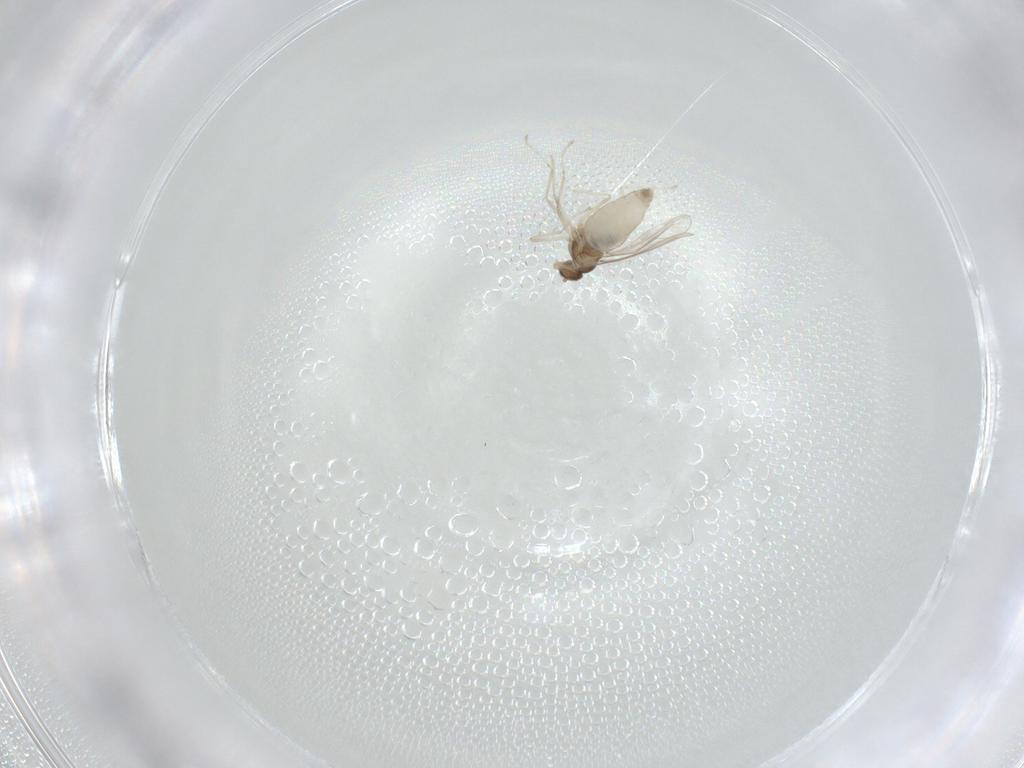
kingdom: Animalia
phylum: Arthropoda
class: Insecta
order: Diptera
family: Cecidomyiidae
